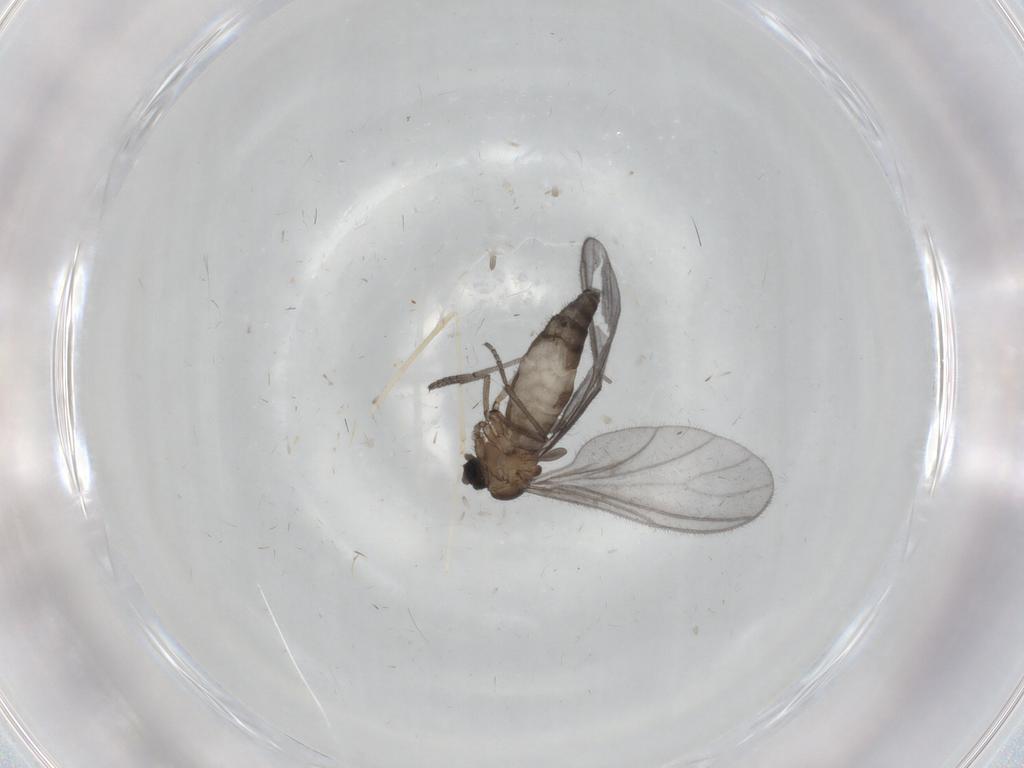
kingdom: Animalia
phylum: Arthropoda
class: Insecta
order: Diptera
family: Sciaridae
